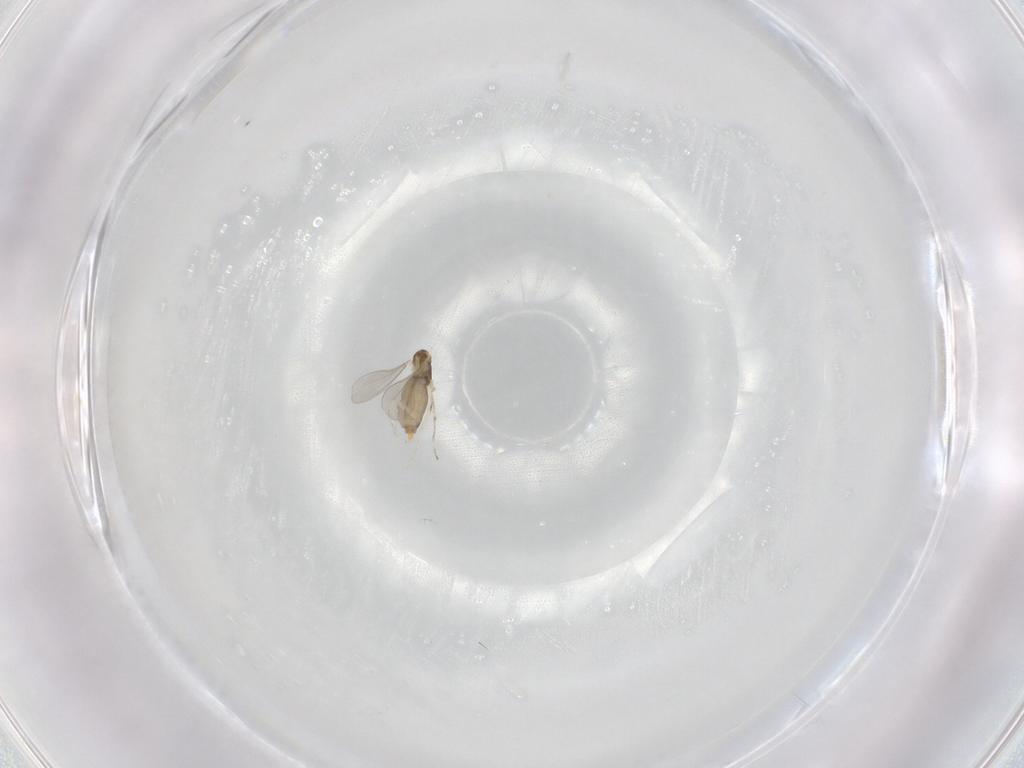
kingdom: Animalia
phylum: Arthropoda
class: Insecta
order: Diptera
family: Cecidomyiidae
